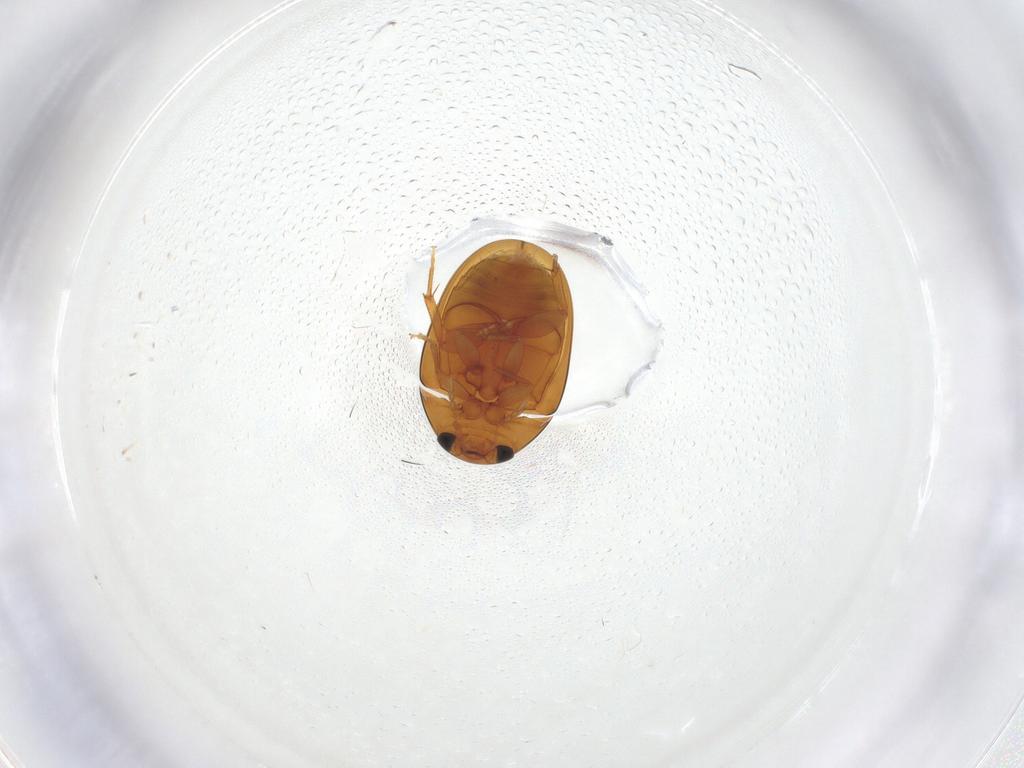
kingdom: Animalia
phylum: Arthropoda
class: Insecta
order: Coleoptera
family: Phalacridae
